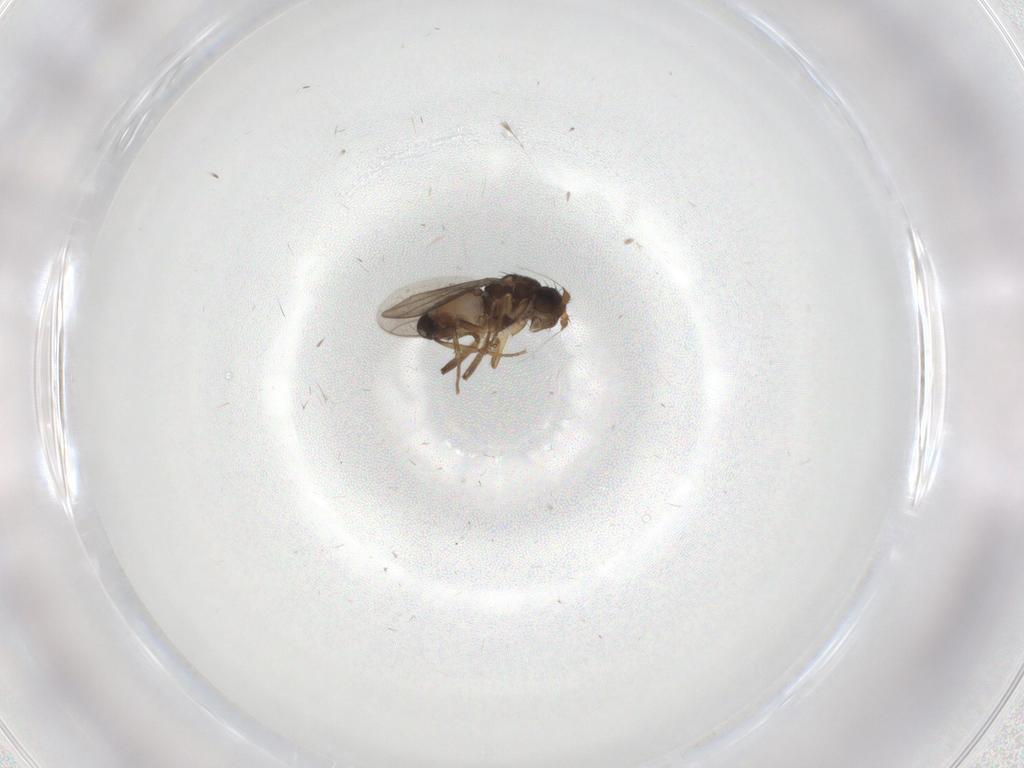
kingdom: Animalia
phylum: Arthropoda
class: Insecta
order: Diptera
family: Sphaeroceridae
